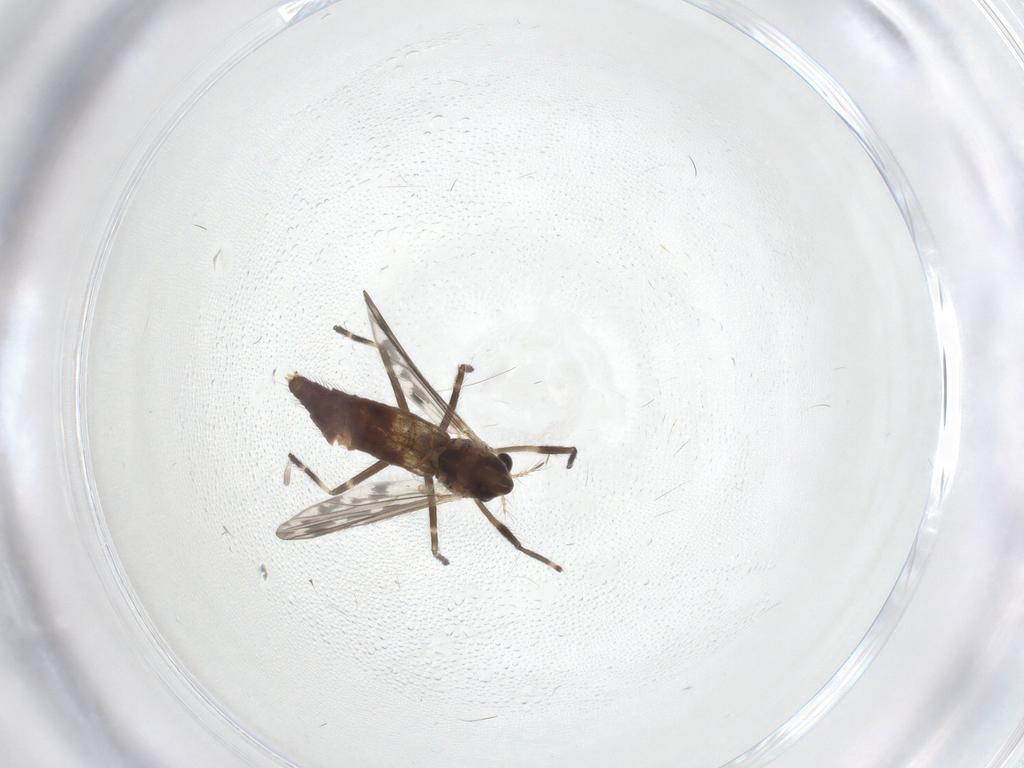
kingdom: Animalia
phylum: Arthropoda
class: Insecta
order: Diptera
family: Chironomidae
